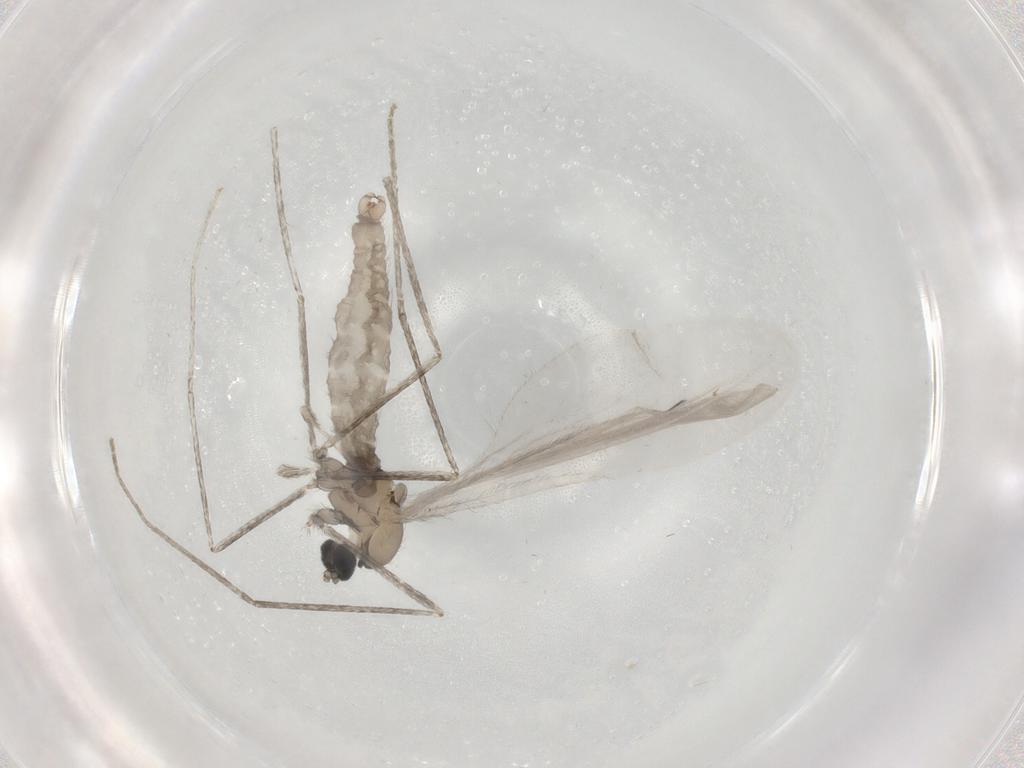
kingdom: Animalia
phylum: Arthropoda
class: Insecta
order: Diptera
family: Cecidomyiidae
